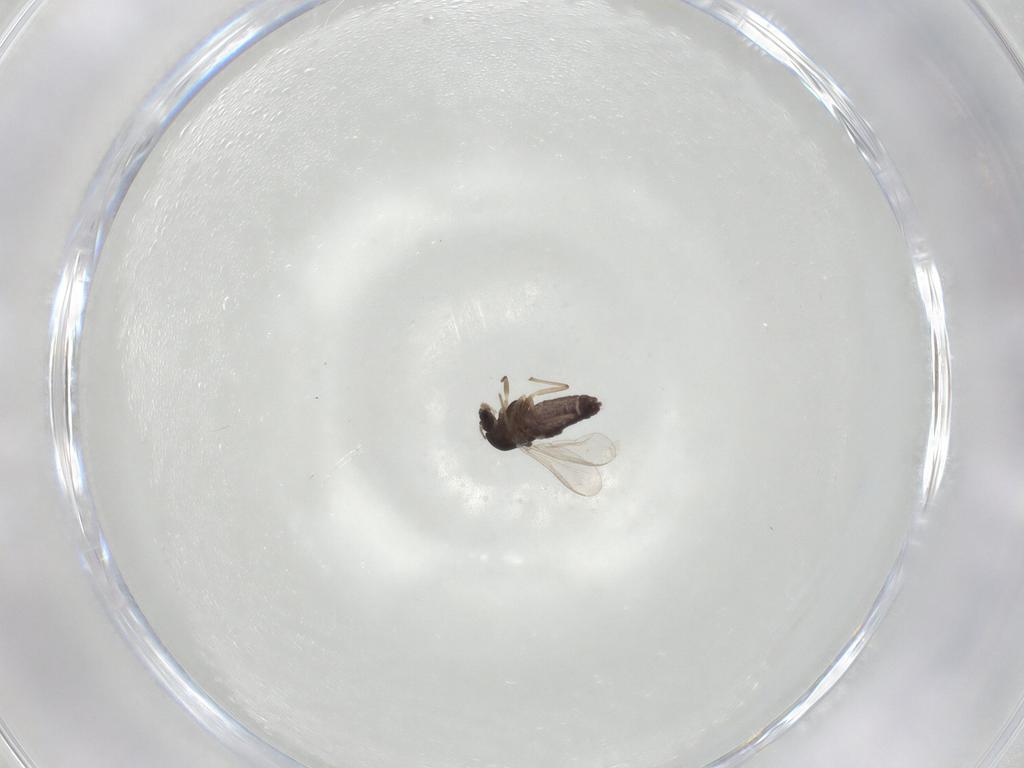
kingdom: Animalia
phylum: Arthropoda
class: Insecta
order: Diptera
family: Chironomidae
